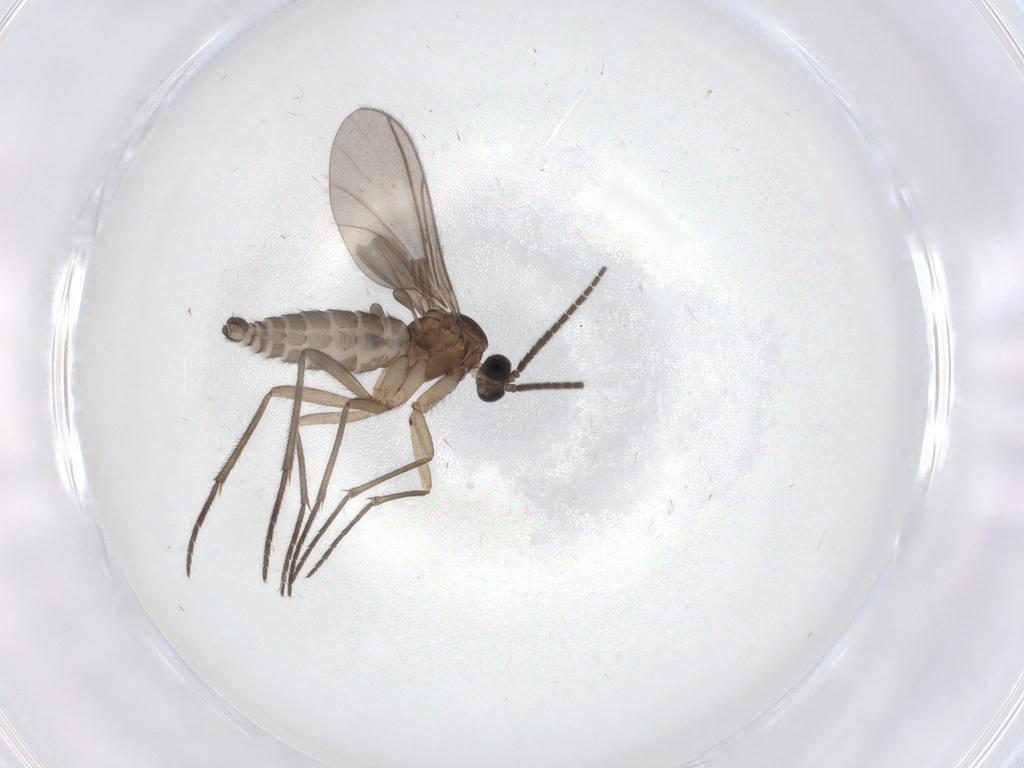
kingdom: Animalia
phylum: Arthropoda
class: Insecta
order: Diptera
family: Sciaridae
